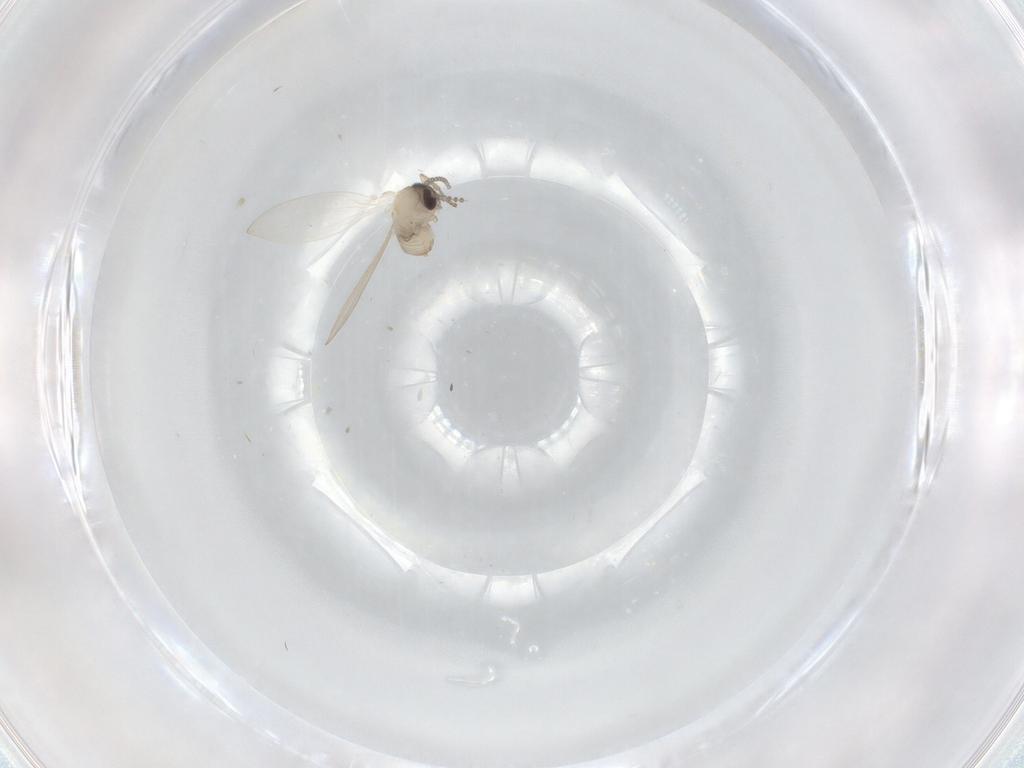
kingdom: Animalia
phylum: Arthropoda
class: Insecta
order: Diptera
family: Psychodidae
